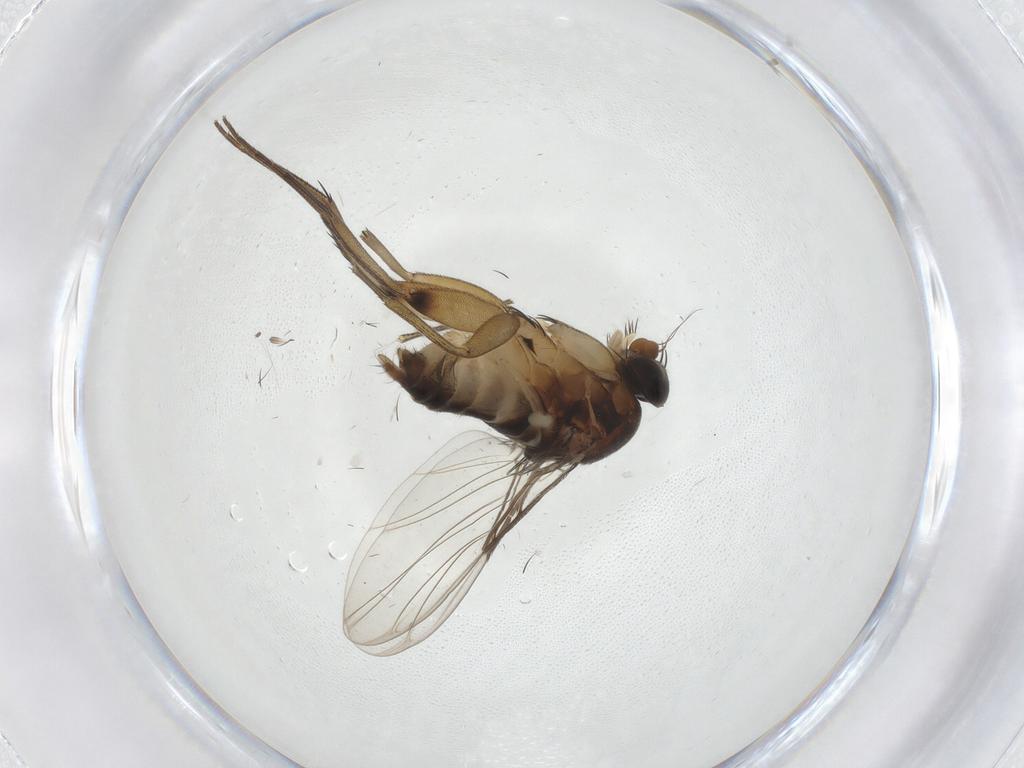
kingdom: Animalia
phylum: Arthropoda
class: Insecta
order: Diptera
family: Phoridae
